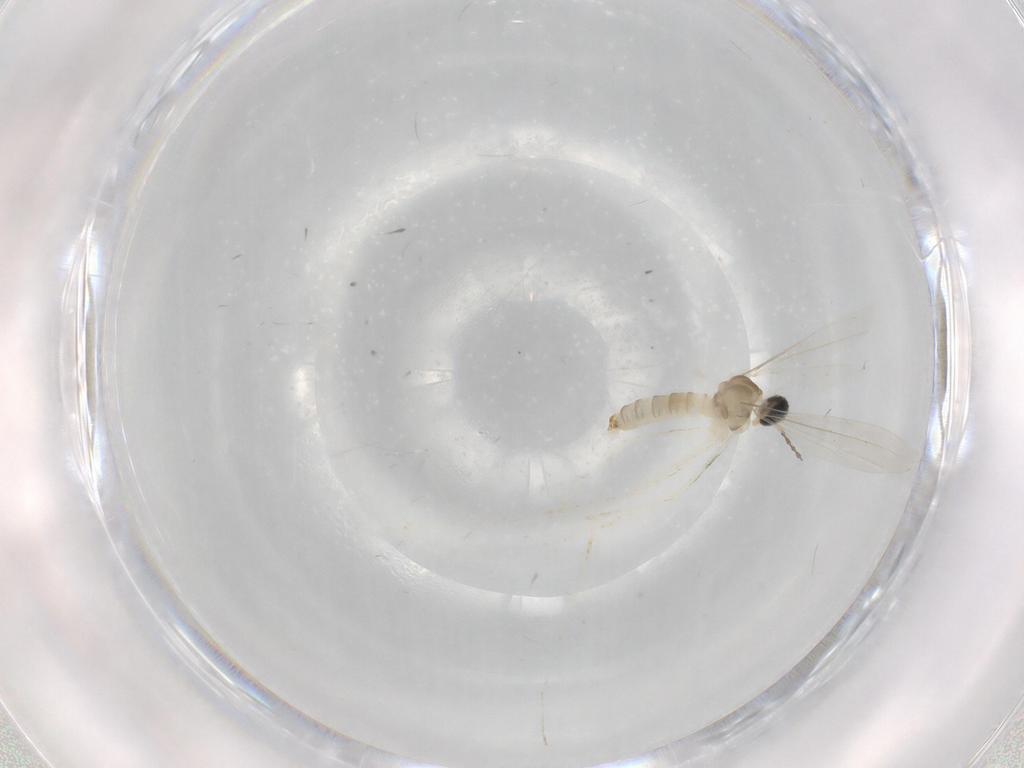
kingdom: Animalia
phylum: Arthropoda
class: Insecta
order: Diptera
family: Cecidomyiidae
